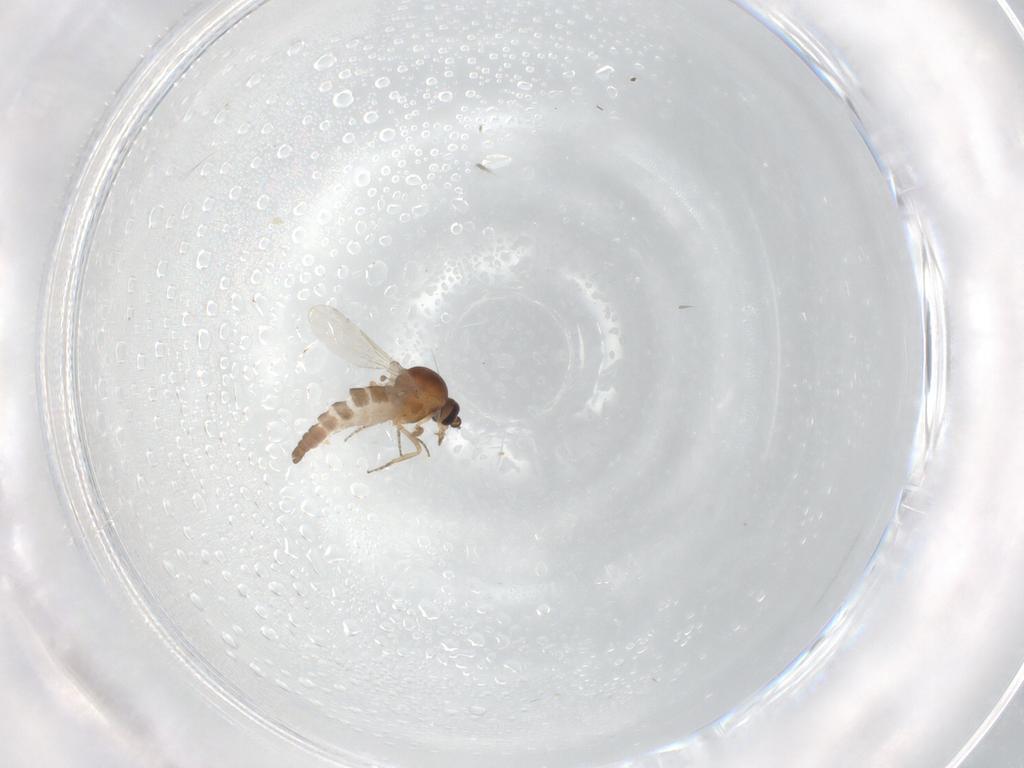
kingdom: Animalia
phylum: Arthropoda
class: Insecta
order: Diptera
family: Ceratopogonidae
